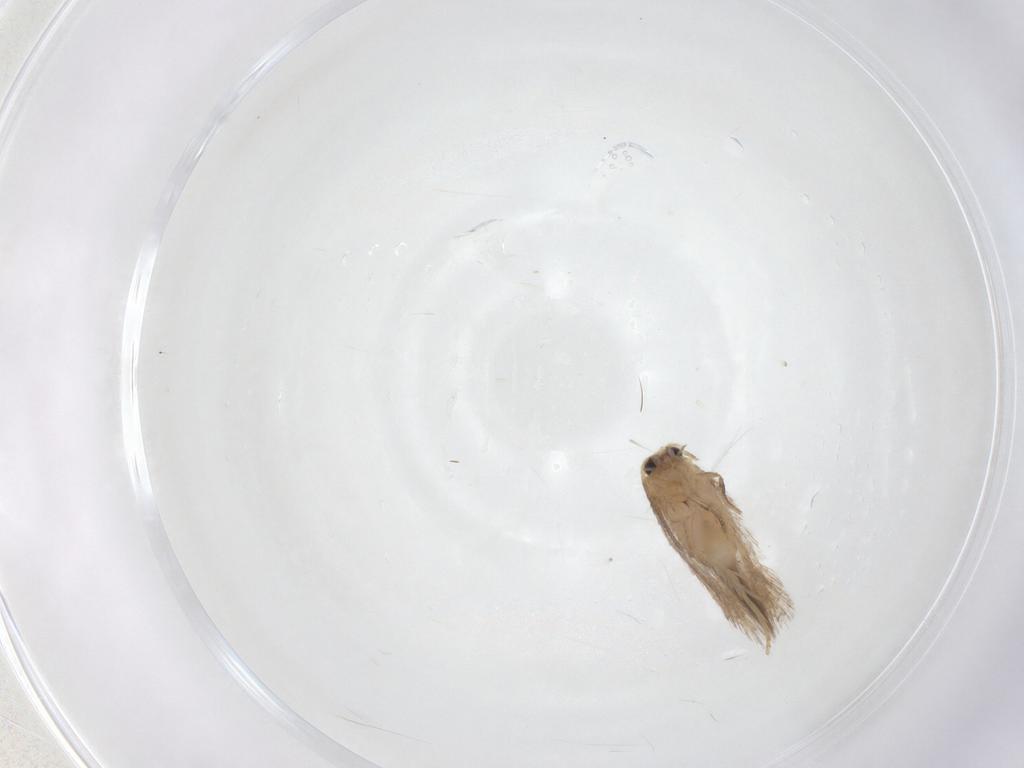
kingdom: Animalia
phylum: Arthropoda
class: Insecta
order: Lepidoptera
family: Nepticulidae
